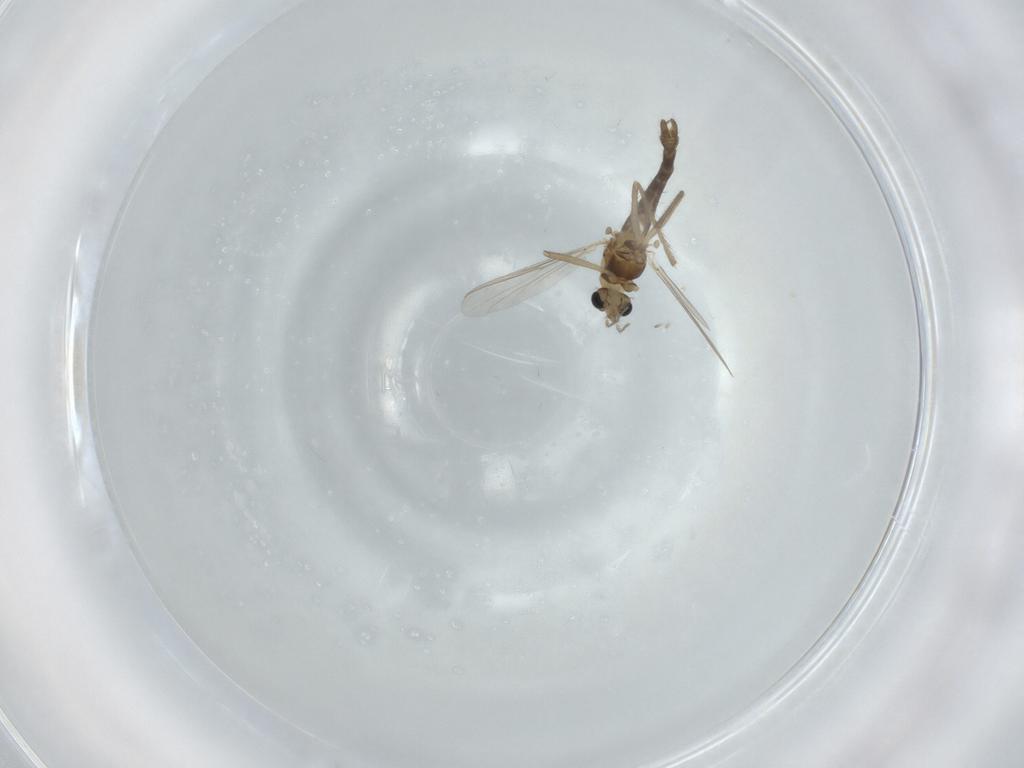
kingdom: Animalia
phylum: Arthropoda
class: Insecta
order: Diptera
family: Chironomidae
